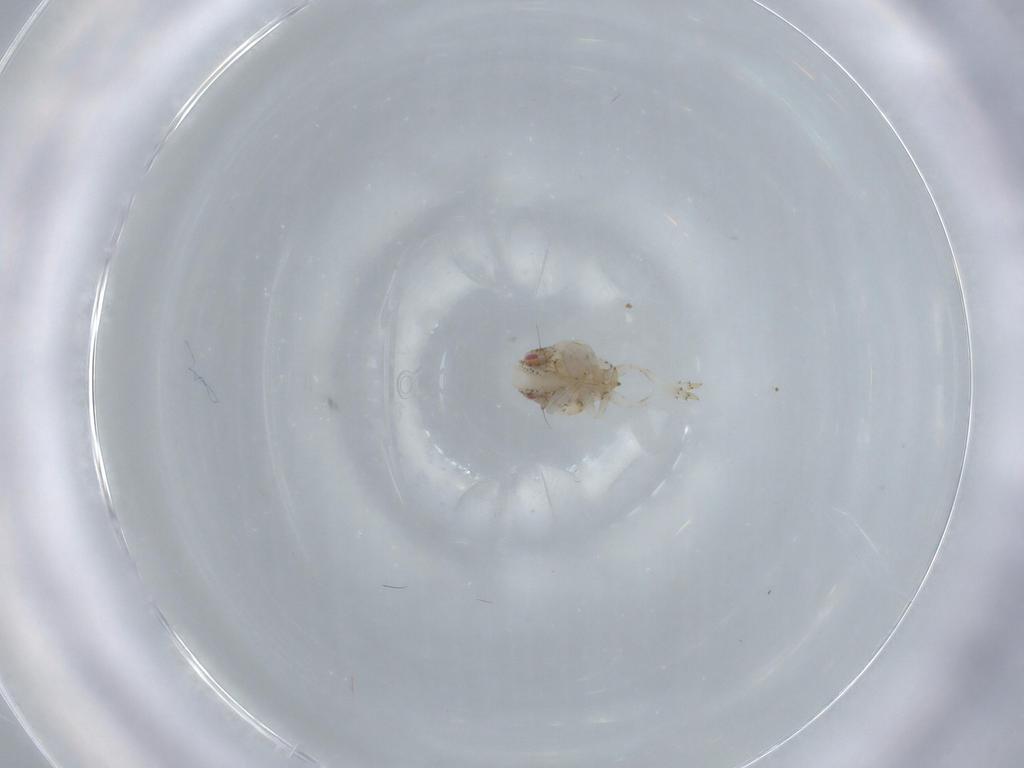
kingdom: Animalia
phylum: Arthropoda
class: Insecta
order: Hemiptera
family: Acanaloniidae
